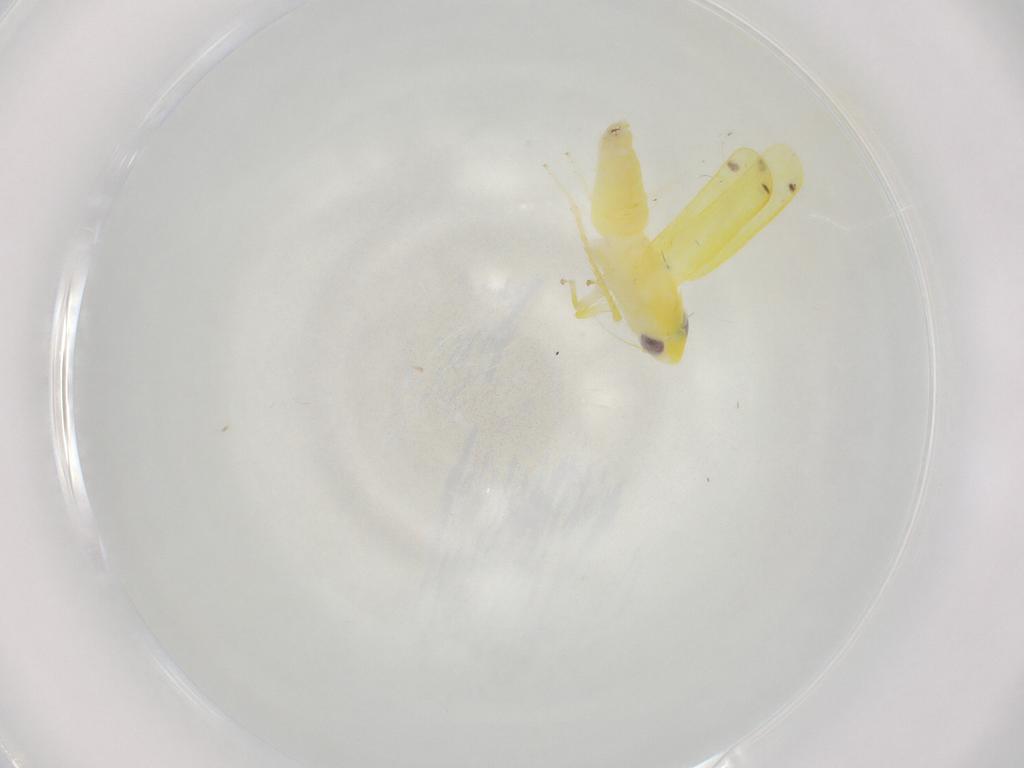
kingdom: Animalia
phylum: Arthropoda
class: Insecta
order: Hemiptera
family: Cicadellidae
